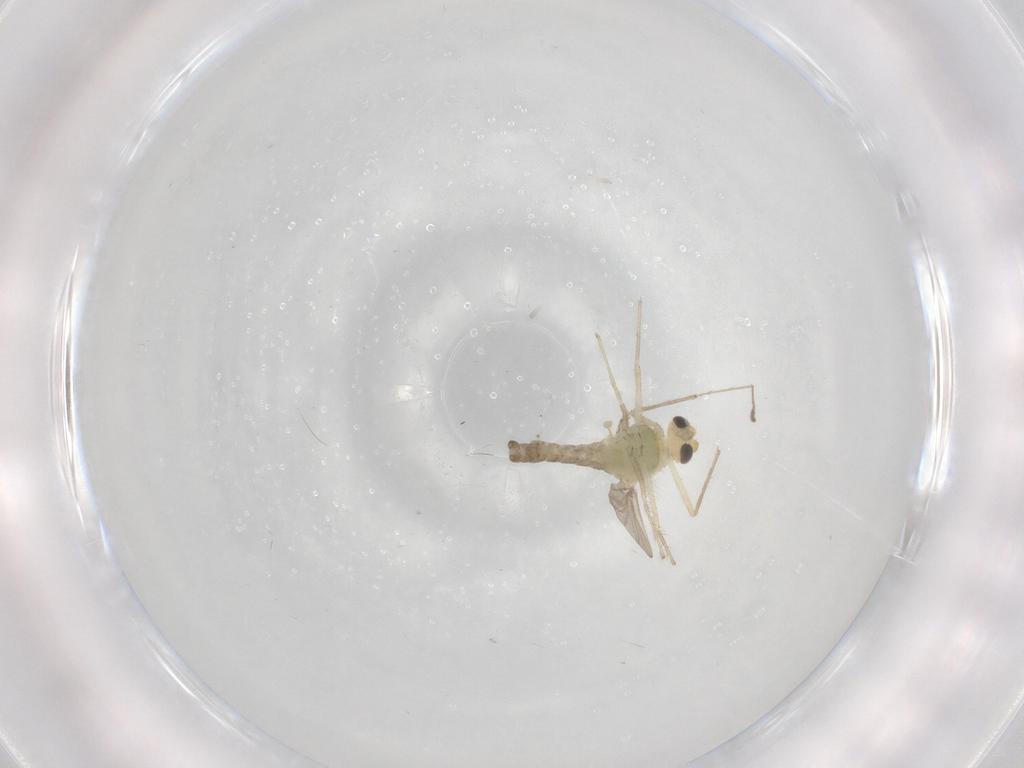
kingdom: Animalia
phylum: Arthropoda
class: Insecta
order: Diptera
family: Chironomidae
